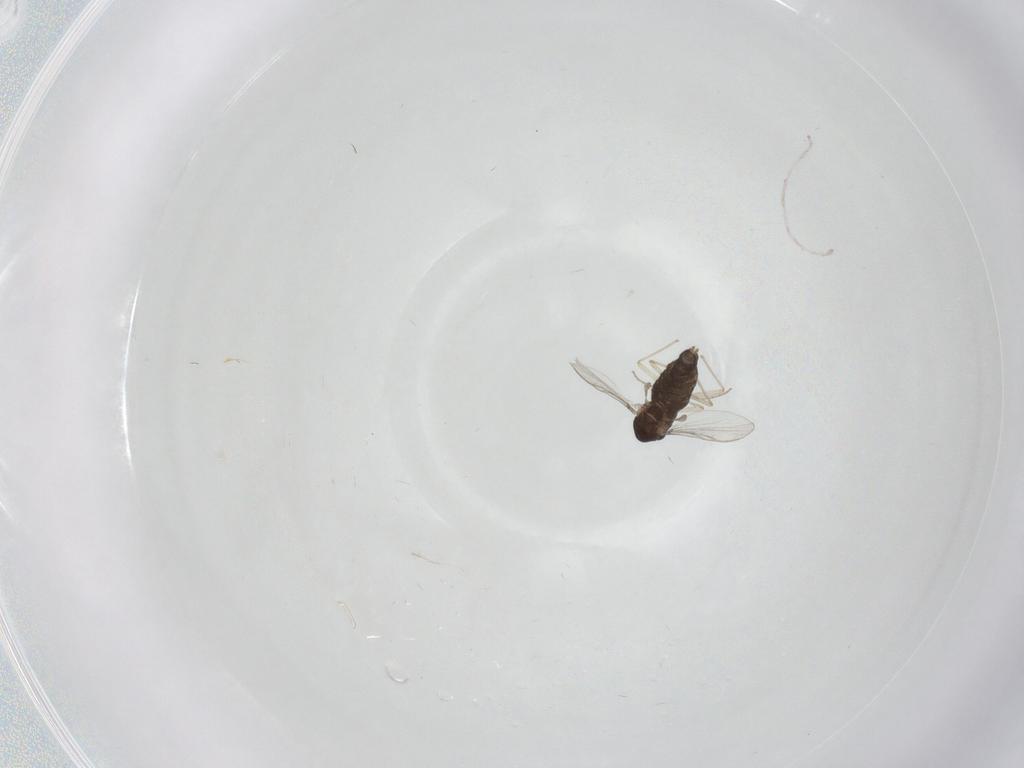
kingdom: Animalia
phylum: Arthropoda
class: Insecta
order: Diptera
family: Chironomidae
